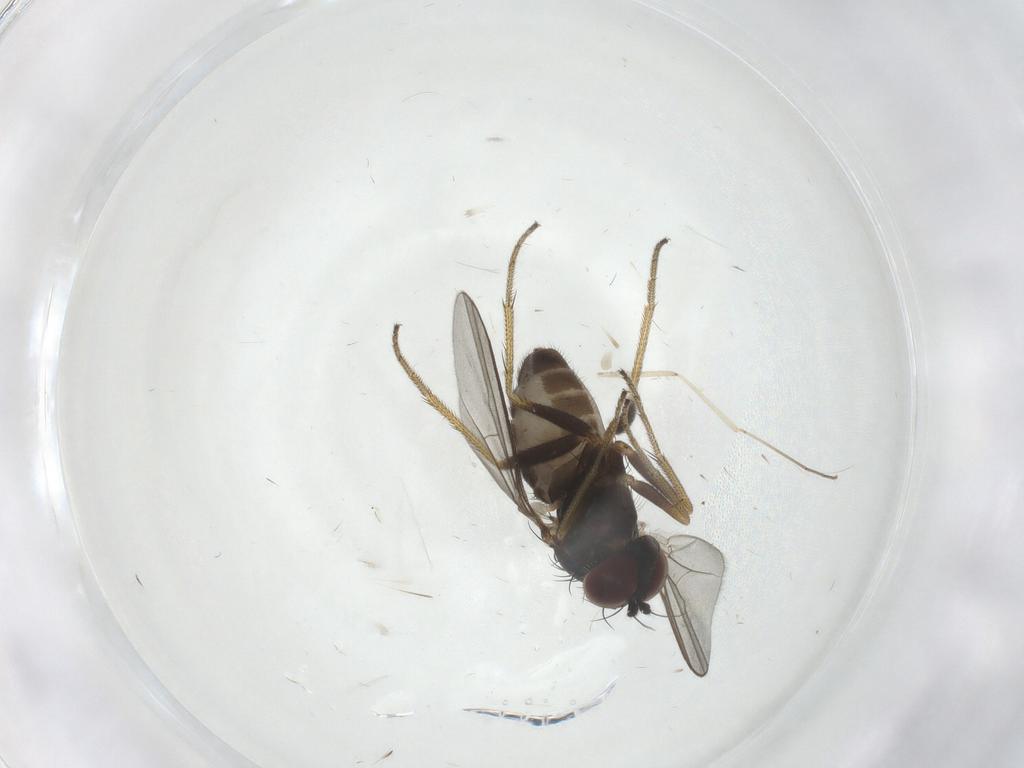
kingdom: Animalia
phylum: Arthropoda
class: Insecta
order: Diptera
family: Cecidomyiidae
